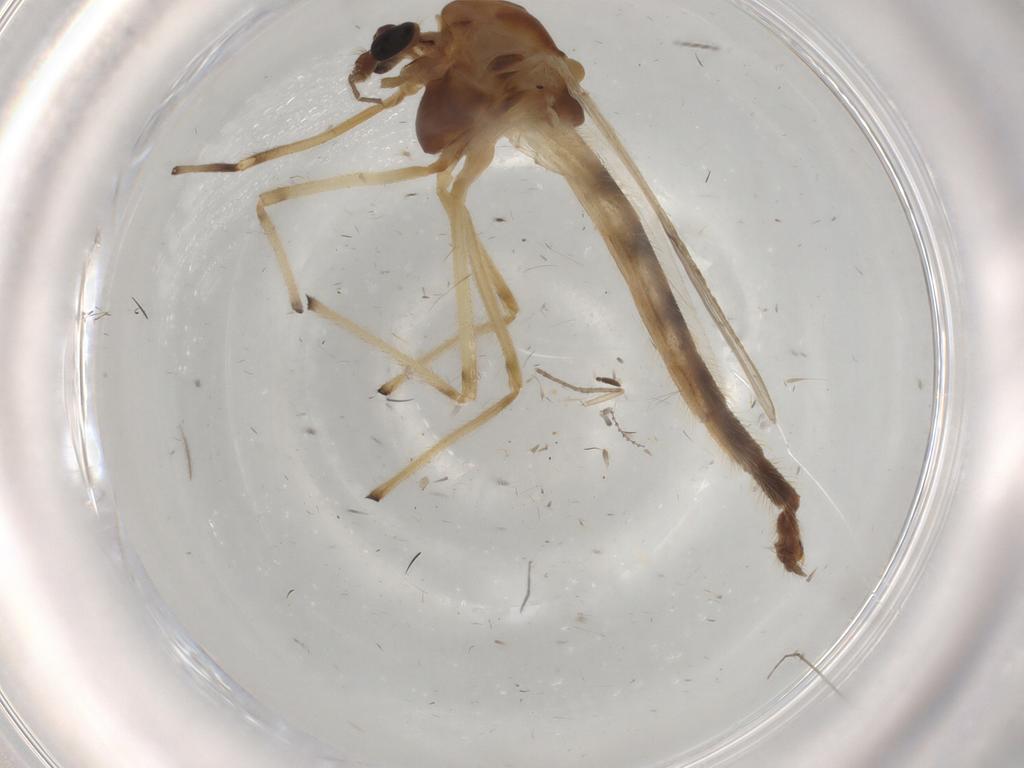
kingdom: Animalia
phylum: Arthropoda
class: Insecta
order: Diptera
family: Chironomidae
